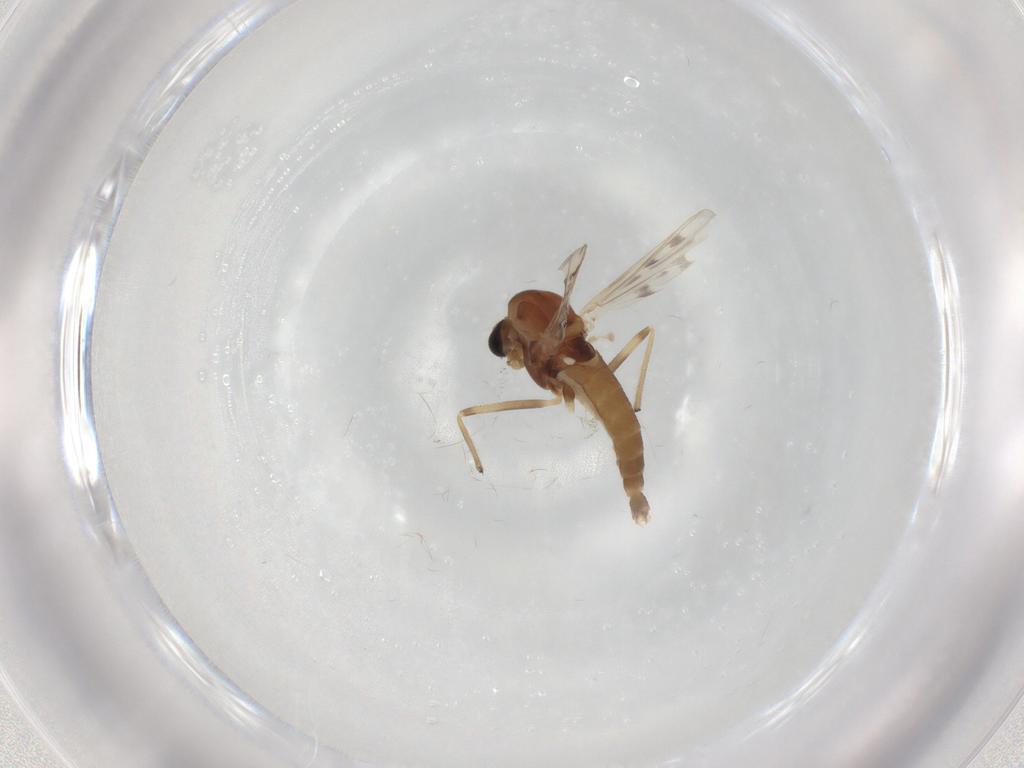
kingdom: Animalia
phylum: Arthropoda
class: Insecta
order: Diptera
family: Chironomidae
